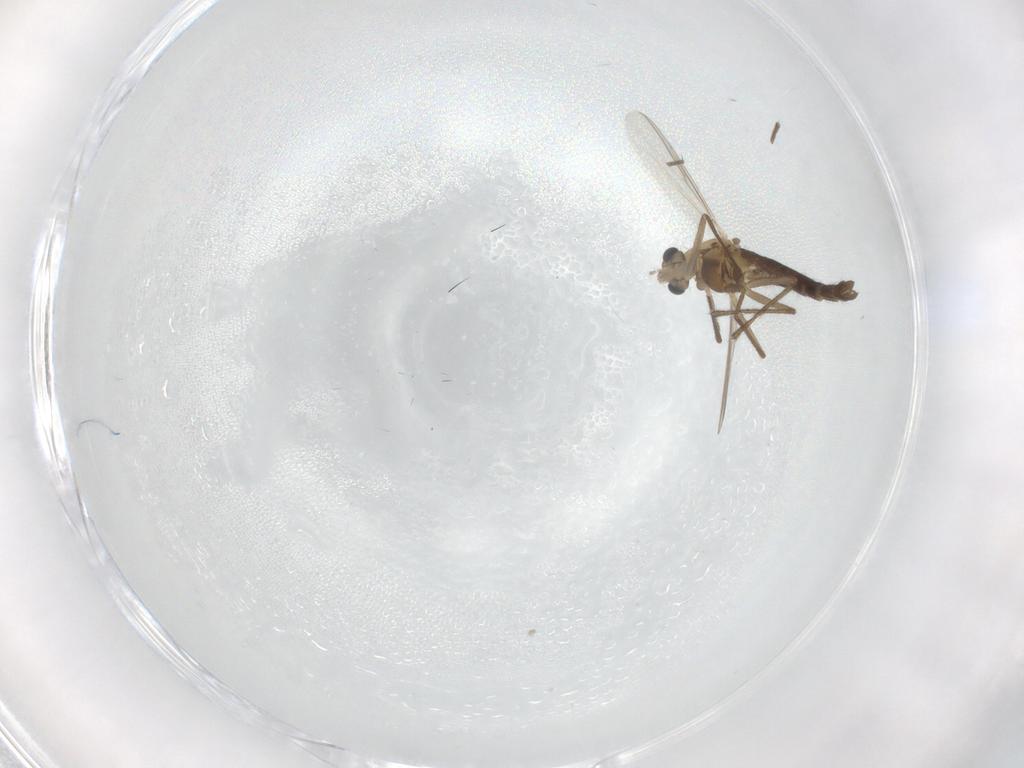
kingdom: Animalia
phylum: Arthropoda
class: Insecta
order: Diptera
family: Chironomidae
